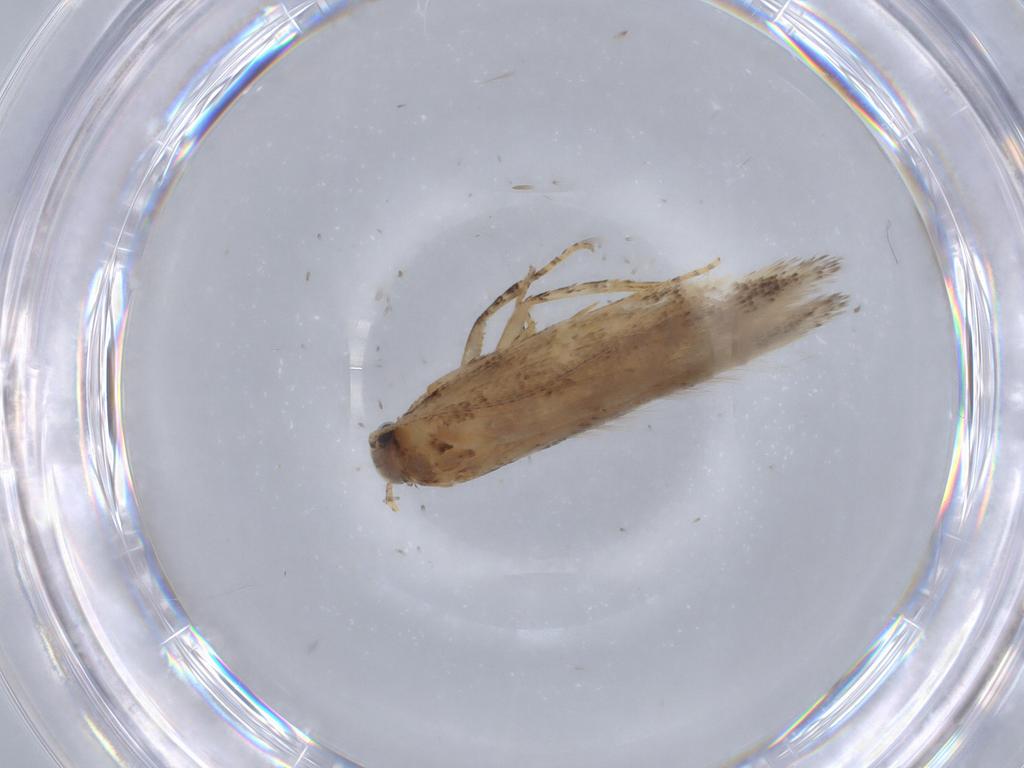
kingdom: Animalia
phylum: Arthropoda
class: Insecta
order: Lepidoptera
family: Gelechiidae
